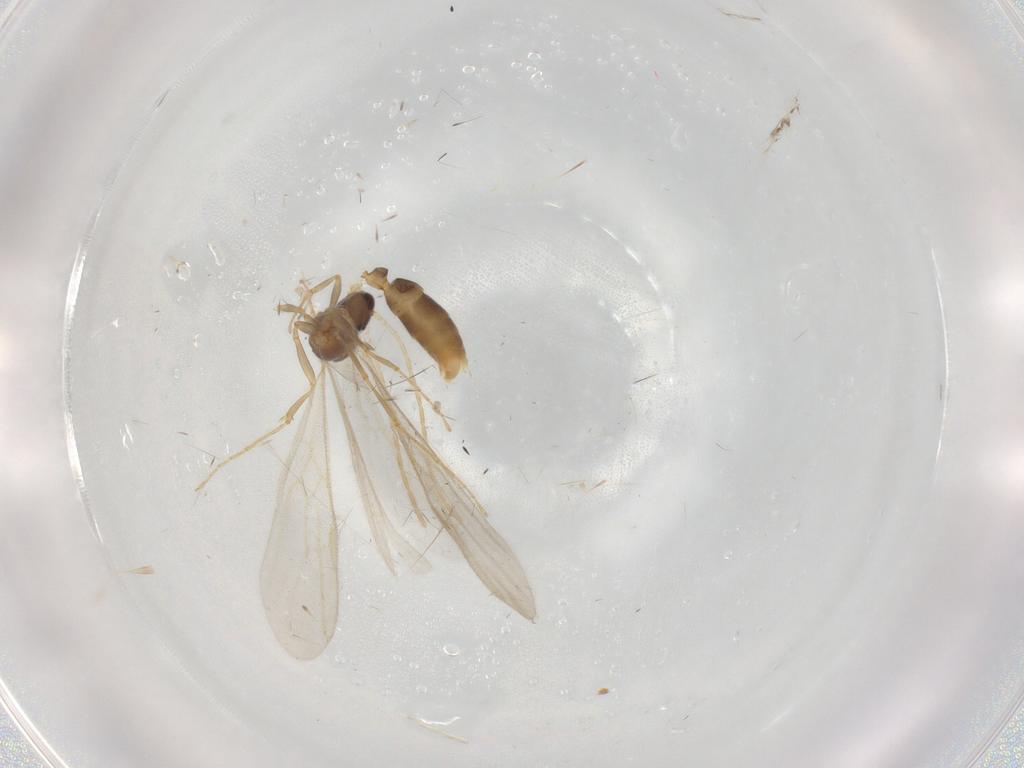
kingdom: Animalia
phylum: Arthropoda
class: Insecta
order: Hymenoptera
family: Formicidae
